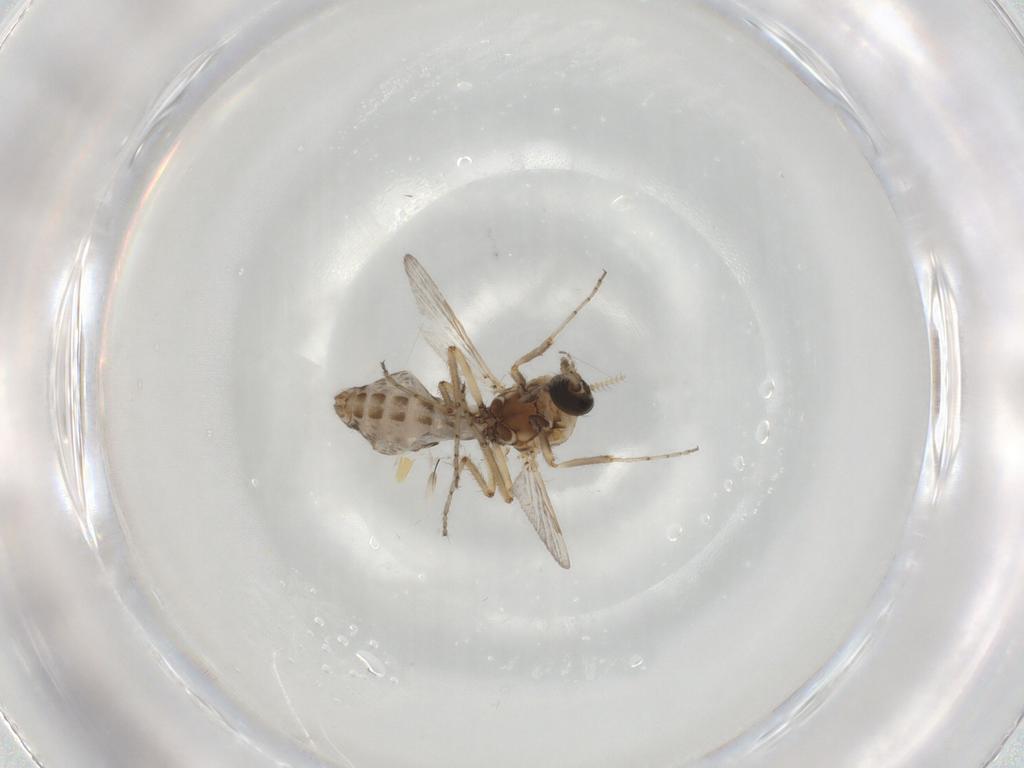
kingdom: Animalia
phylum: Arthropoda
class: Insecta
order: Diptera
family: Ceratopogonidae
